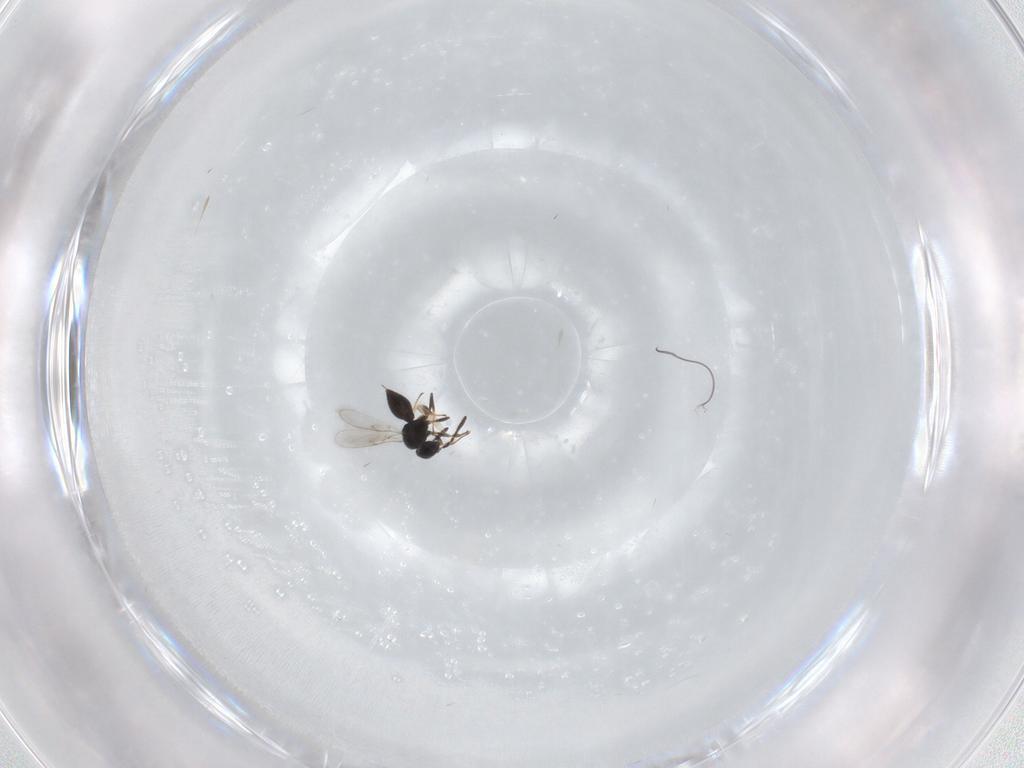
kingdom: Animalia
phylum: Arthropoda
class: Insecta
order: Hymenoptera
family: Scelionidae
